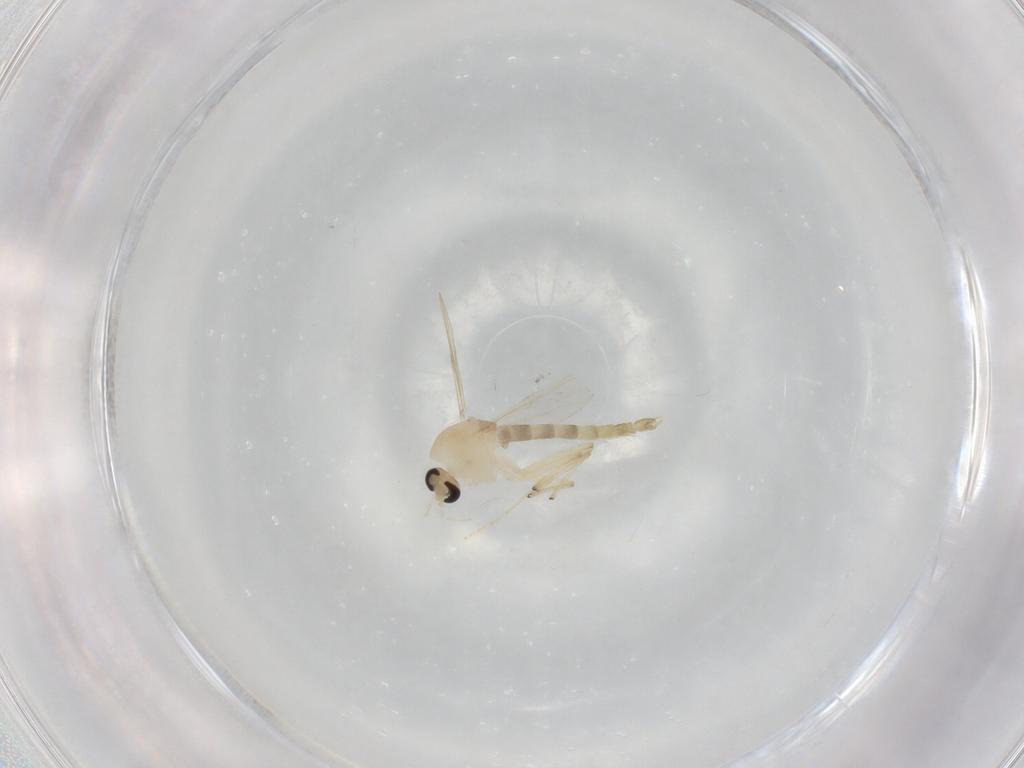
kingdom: Animalia
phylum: Arthropoda
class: Insecta
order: Diptera
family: Chironomidae
